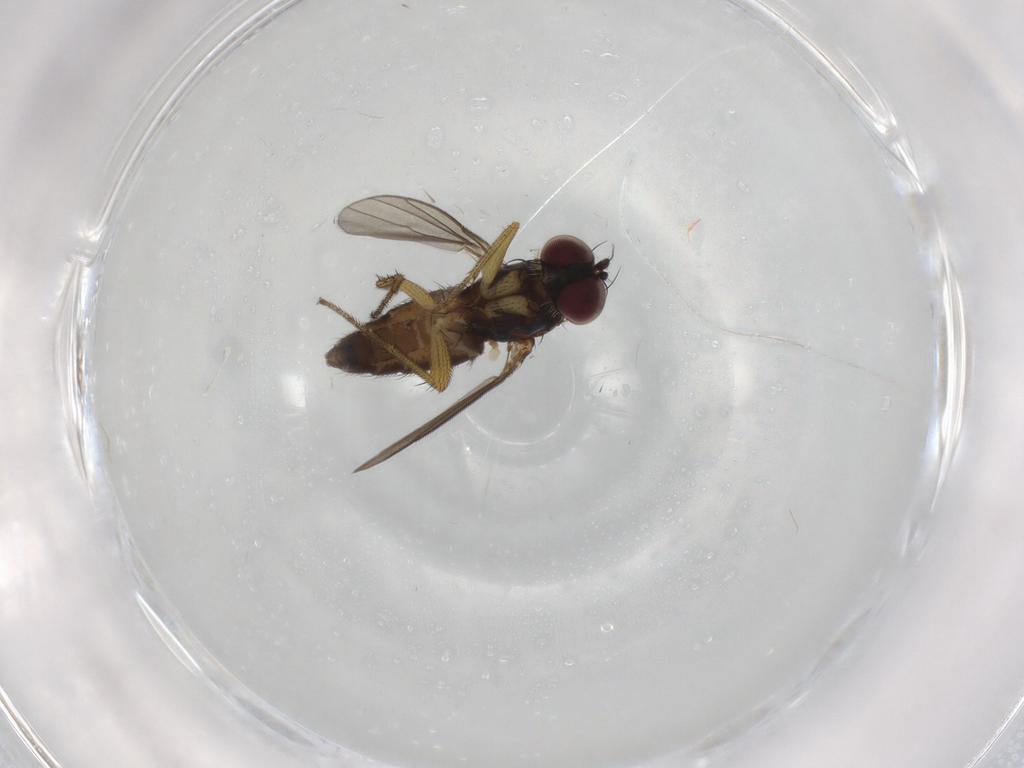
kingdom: Animalia
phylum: Arthropoda
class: Insecta
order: Diptera
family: Dolichopodidae
